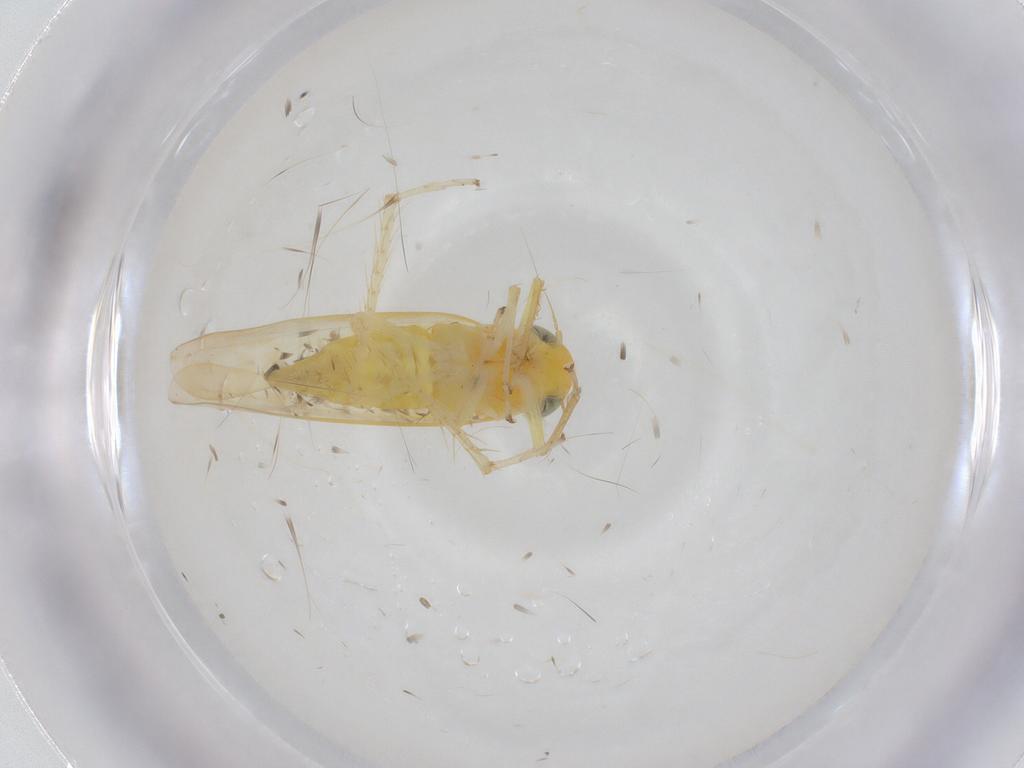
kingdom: Animalia
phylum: Arthropoda
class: Insecta
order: Hemiptera
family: Cicadellidae
